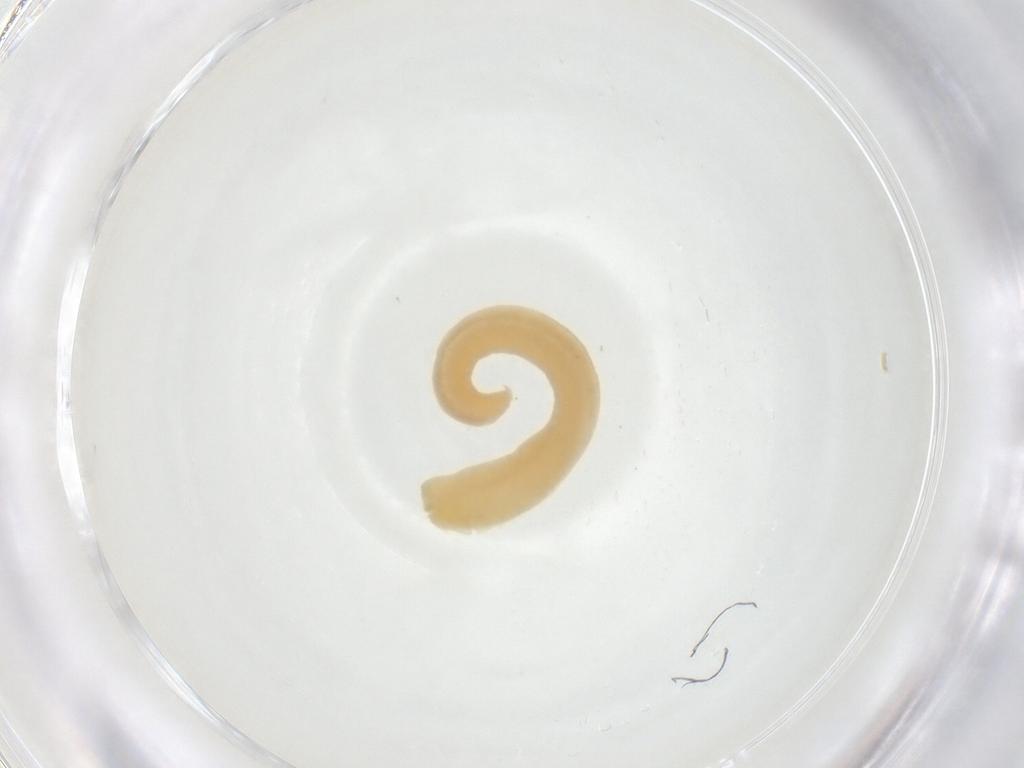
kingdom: Animalia
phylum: Arthropoda
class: Insecta
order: Diptera
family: Chloropidae
